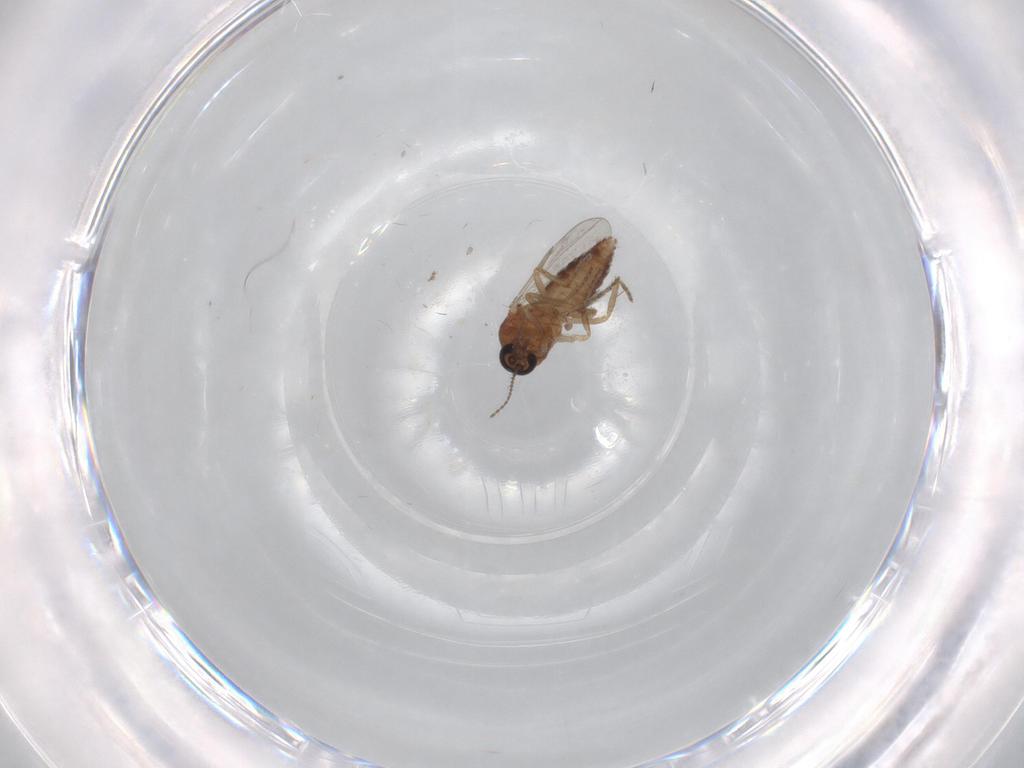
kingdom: Animalia
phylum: Arthropoda
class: Insecta
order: Diptera
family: Ceratopogonidae
